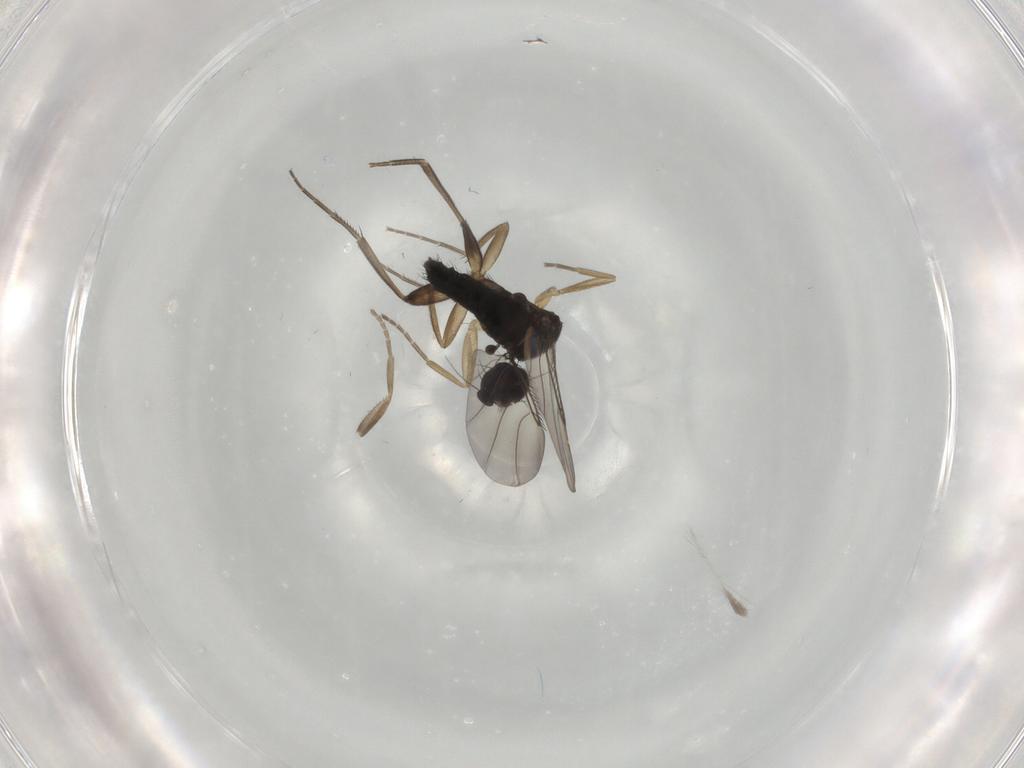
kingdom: Animalia
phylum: Arthropoda
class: Insecta
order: Diptera
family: Phoridae
